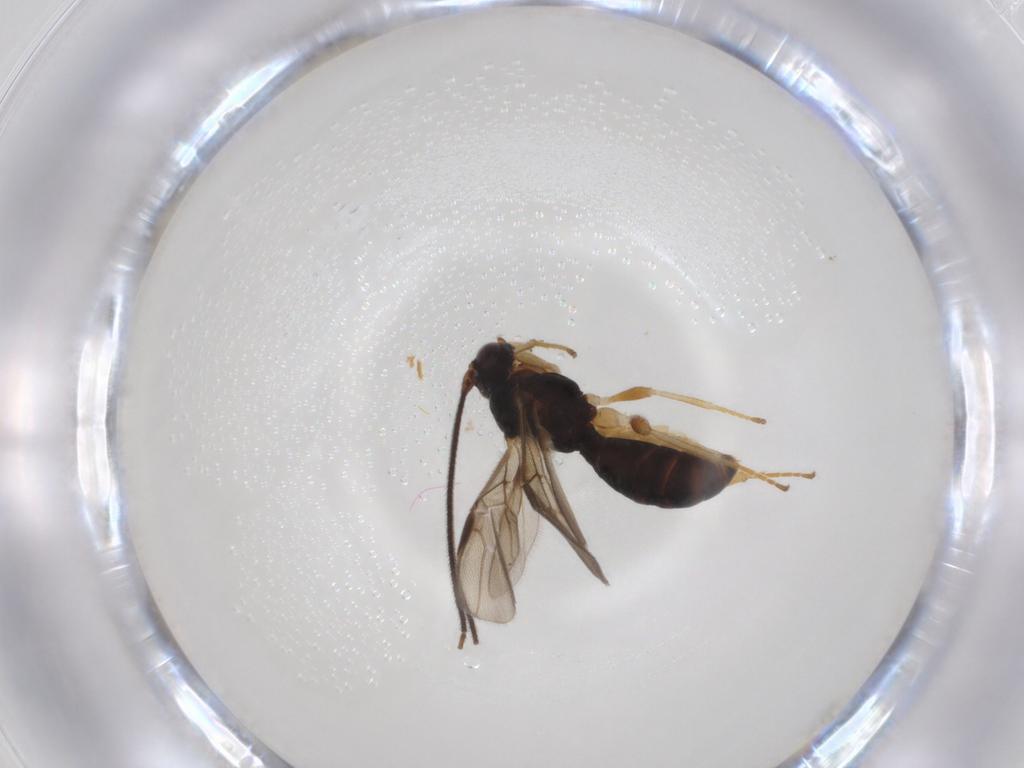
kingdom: Animalia
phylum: Arthropoda
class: Insecta
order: Hymenoptera
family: Braconidae
